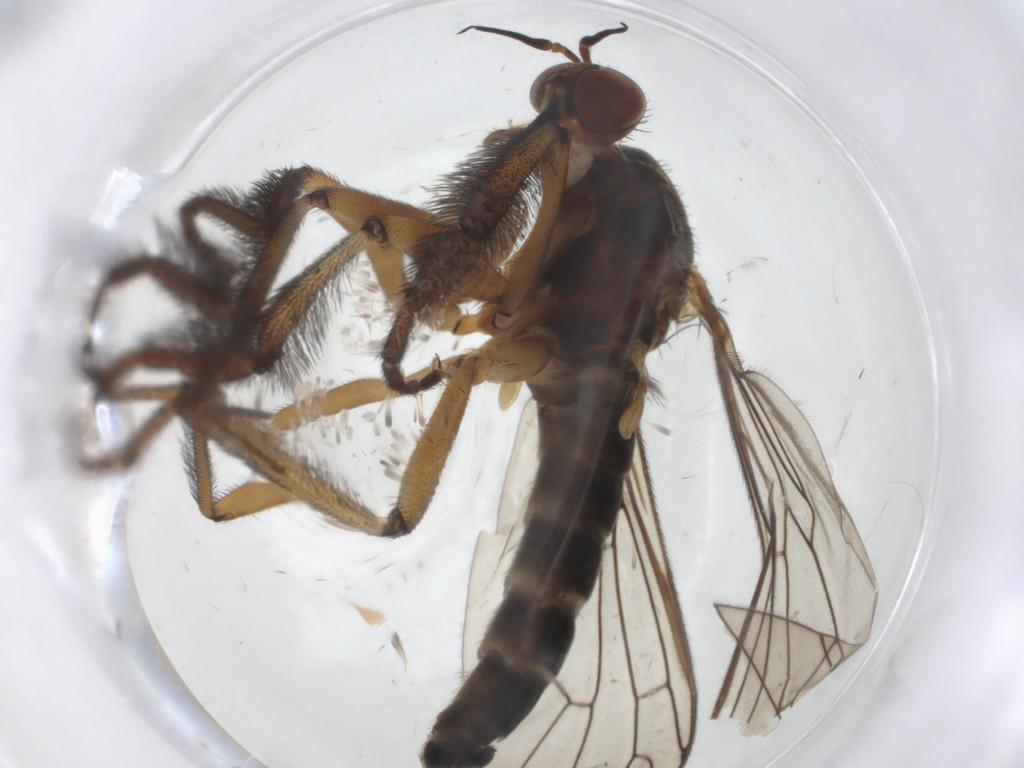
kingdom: Animalia
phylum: Arthropoda
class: Insecta
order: Diptera
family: Empididae
